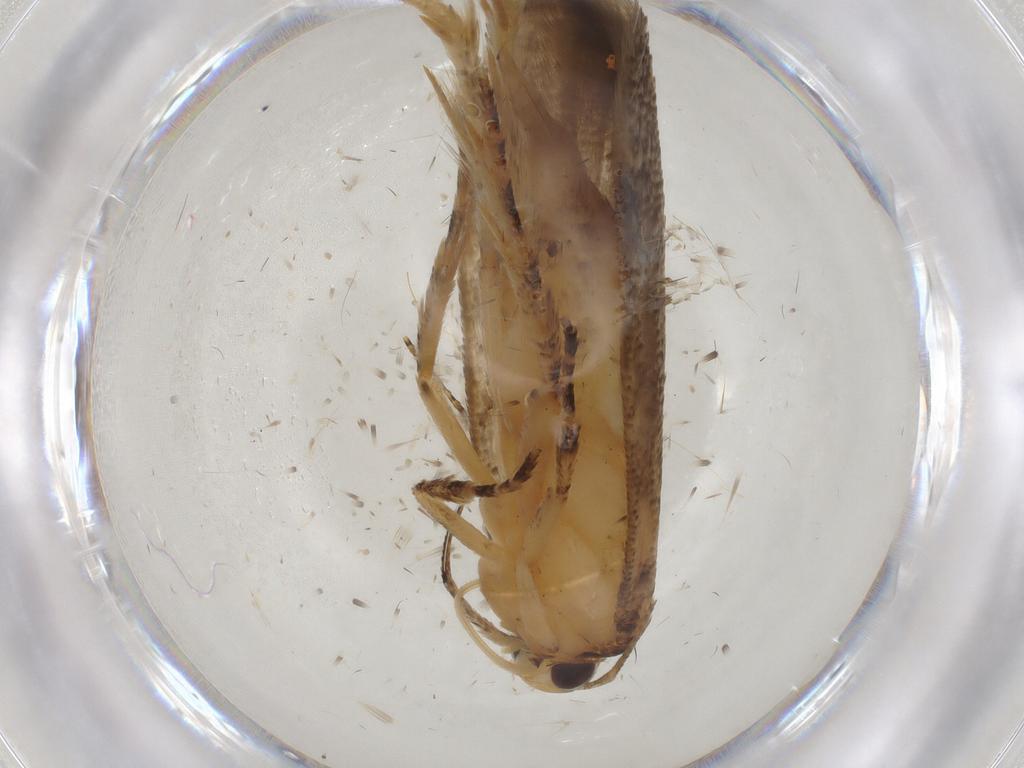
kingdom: Animalia
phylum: Arthropoda
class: Insecta
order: Lepidoptera
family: Gelechiidae
